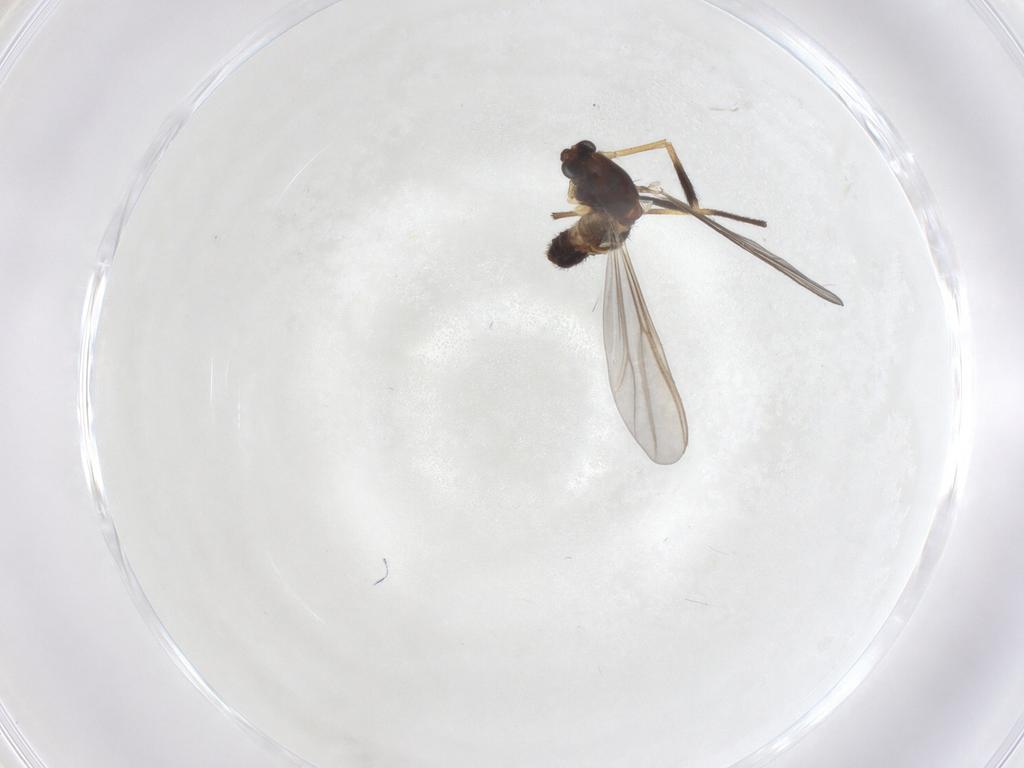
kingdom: Animalia
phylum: Arthropoda
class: Insecta
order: Diptera
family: Chironomidae
